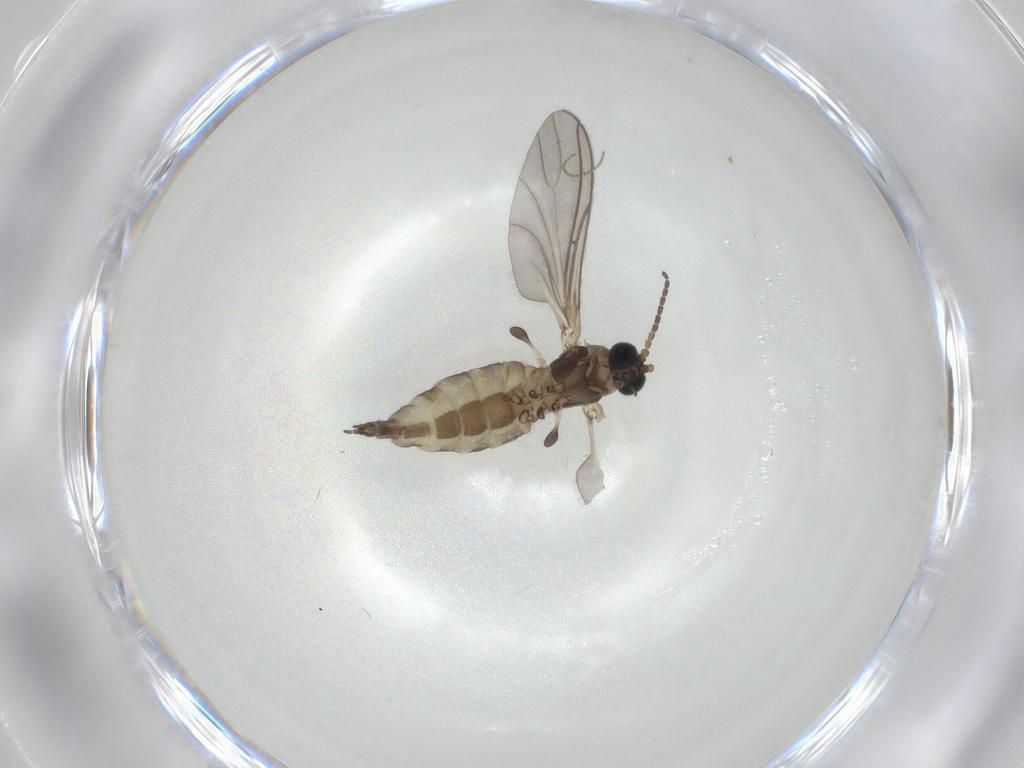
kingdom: Animalia
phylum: Arthropoda
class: Insecta
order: Diptera
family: Sciaridae
